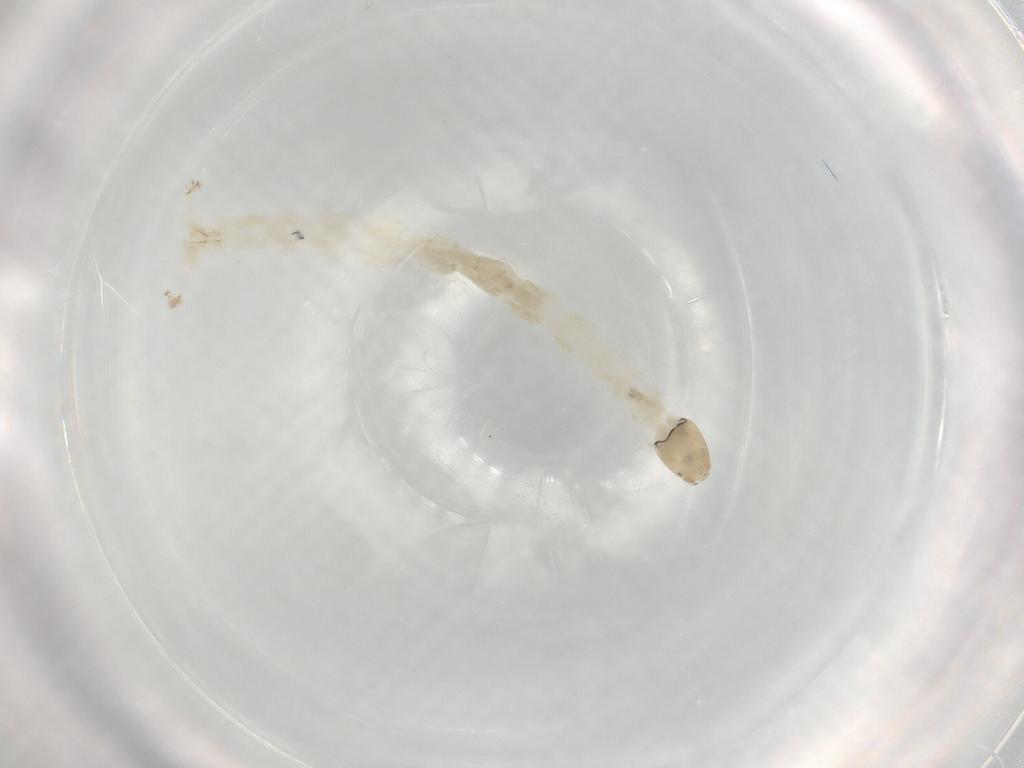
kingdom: Animalia
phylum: Arthropoda
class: Insecta
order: Diptera
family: Chironomidae
